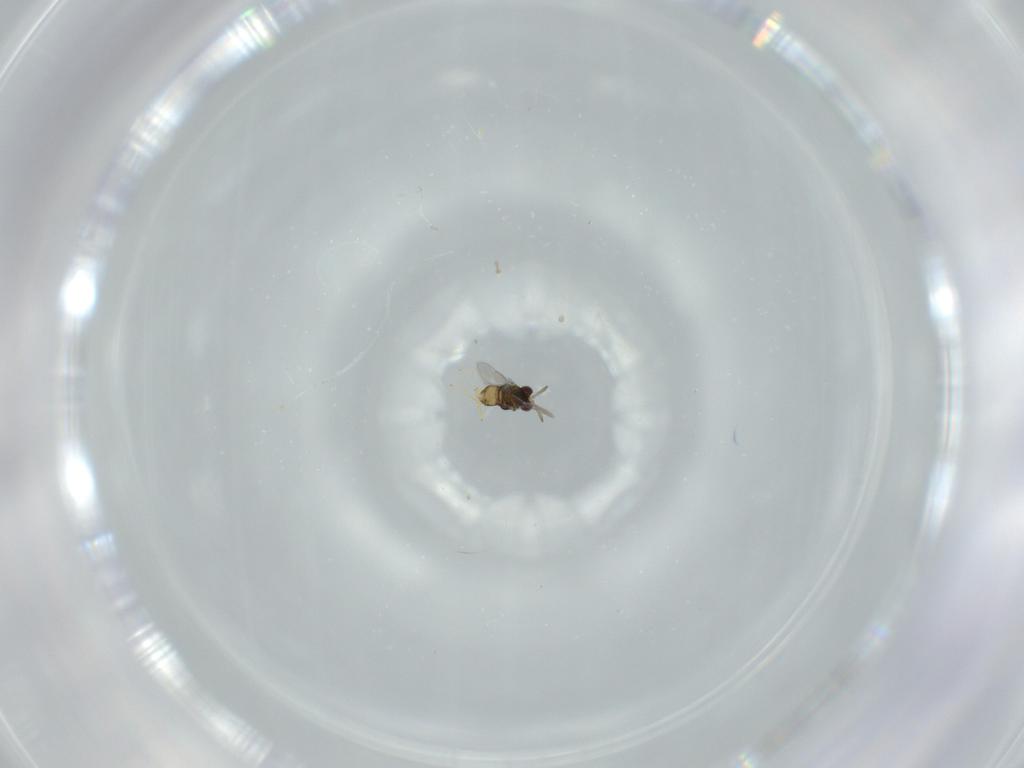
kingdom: Animalia
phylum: Arthropoda
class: Insecta
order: Hymenoptera
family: Aphelinidae
